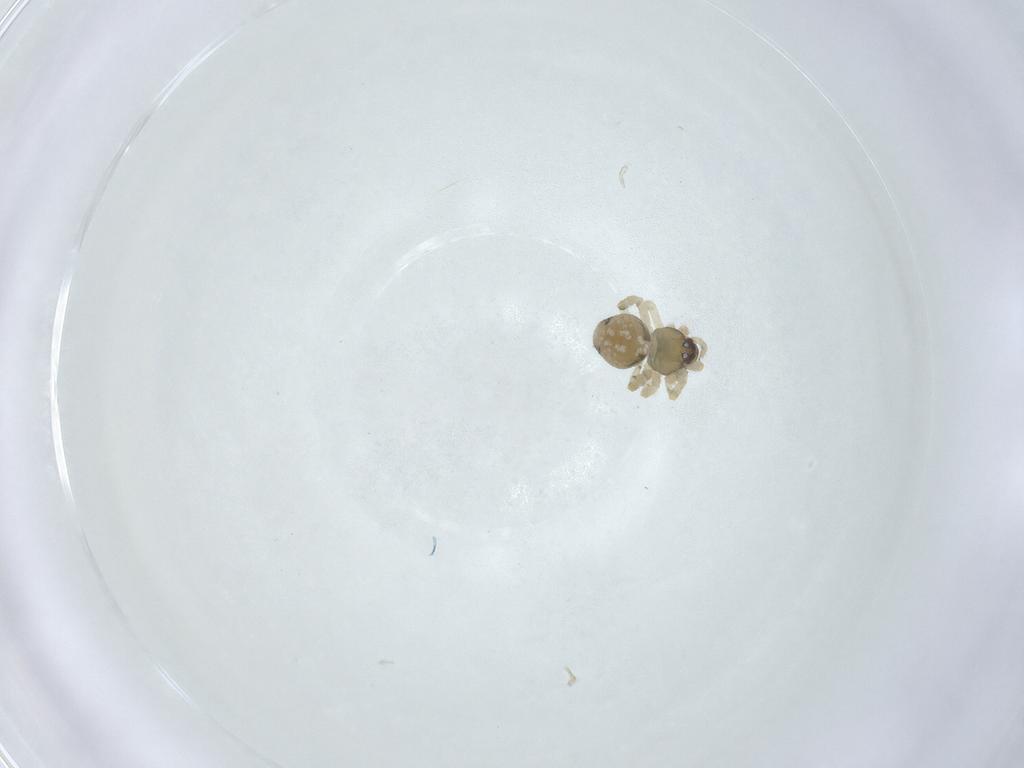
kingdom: Animalia
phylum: Arthropoda
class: Arachnida
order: Araneae
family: Theridiidae
